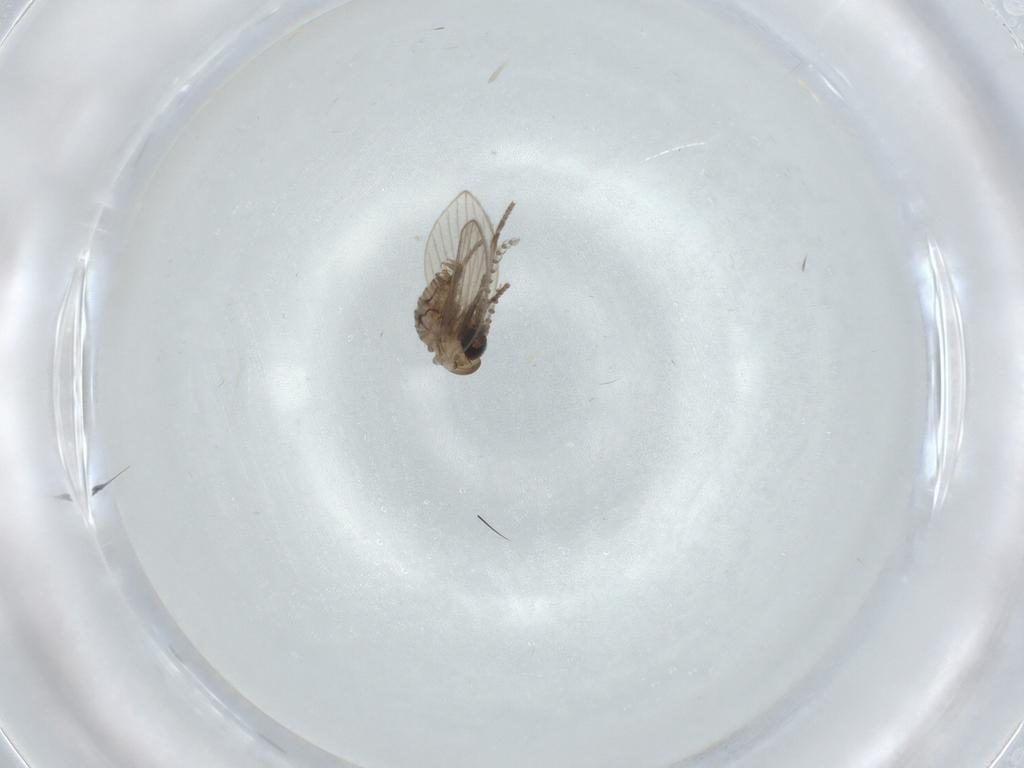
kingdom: Animalia
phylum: Arthropoda
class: Insecta
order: Diptera
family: Psychodidae
